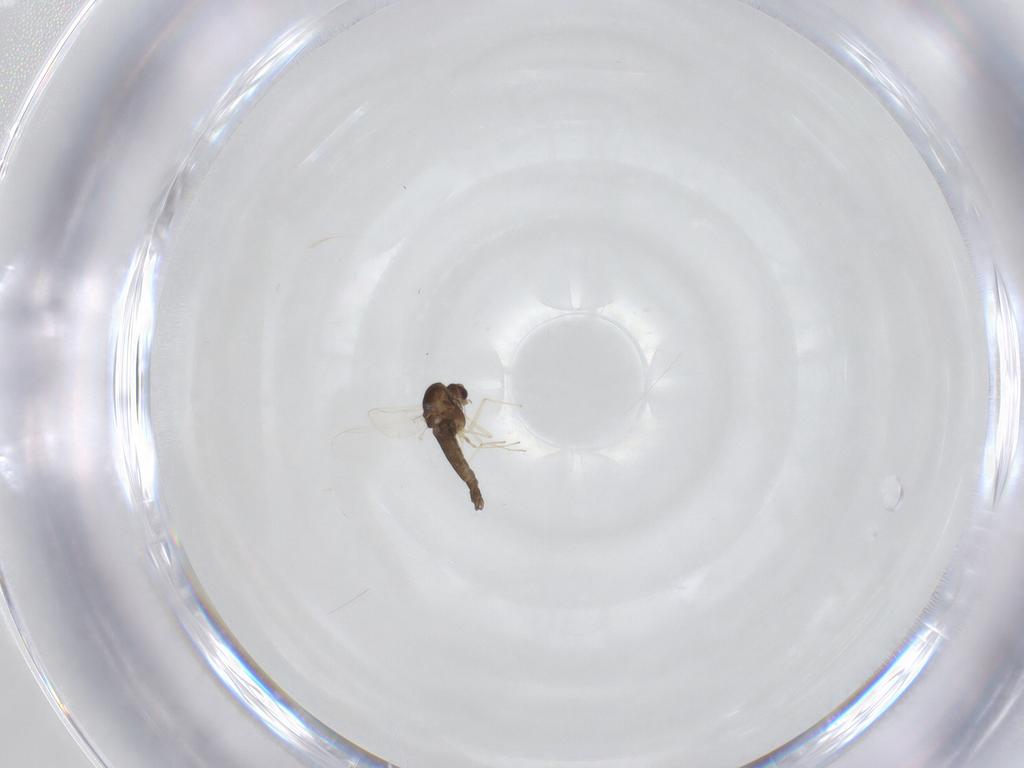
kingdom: Animalia
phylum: Arthropoda
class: Insecta
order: Diptera
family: Chironomidae
